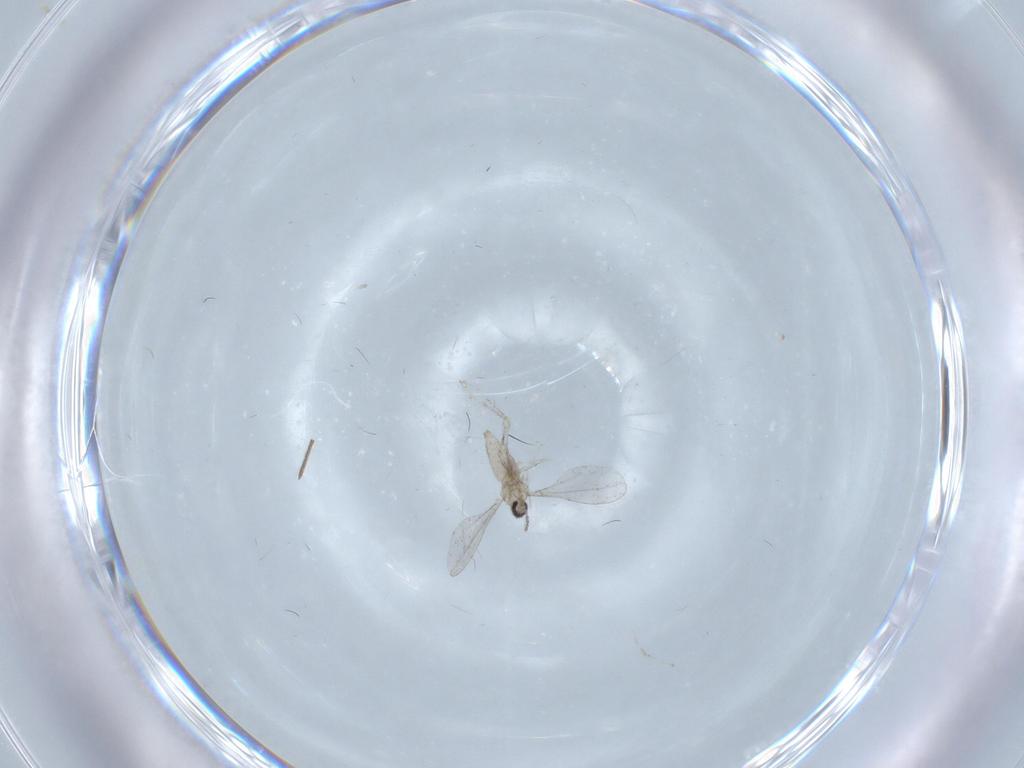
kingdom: Animalia
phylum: Arthropoda
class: Insecta
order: Diptera
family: Cecidomyiidae
